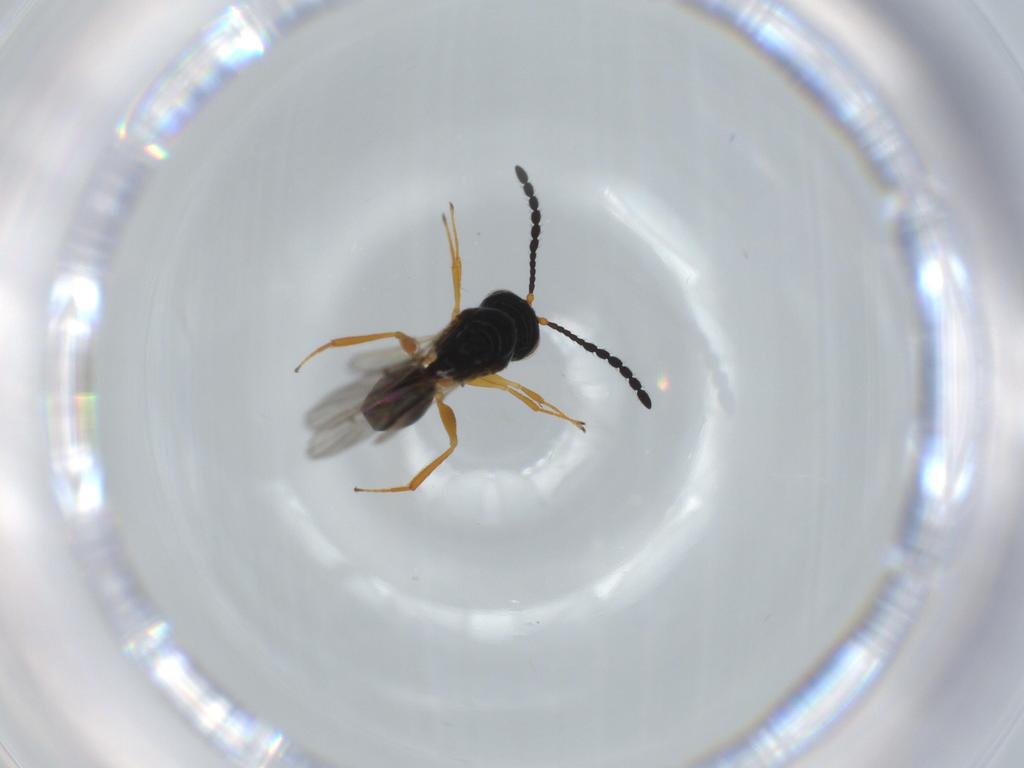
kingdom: Animalia
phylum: Arthropoda
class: Insecta
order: Hymenoptera
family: Figitidae
